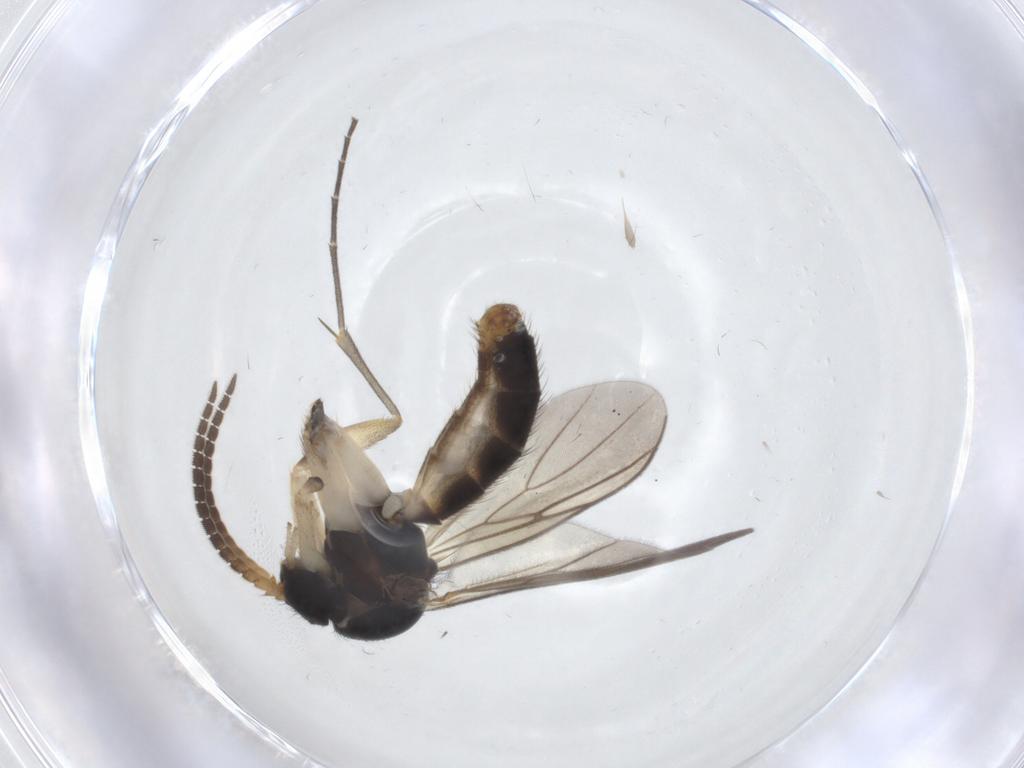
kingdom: Animalia
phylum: Arthropoda
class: Insecta
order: Diptera
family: Mycetophilidae
